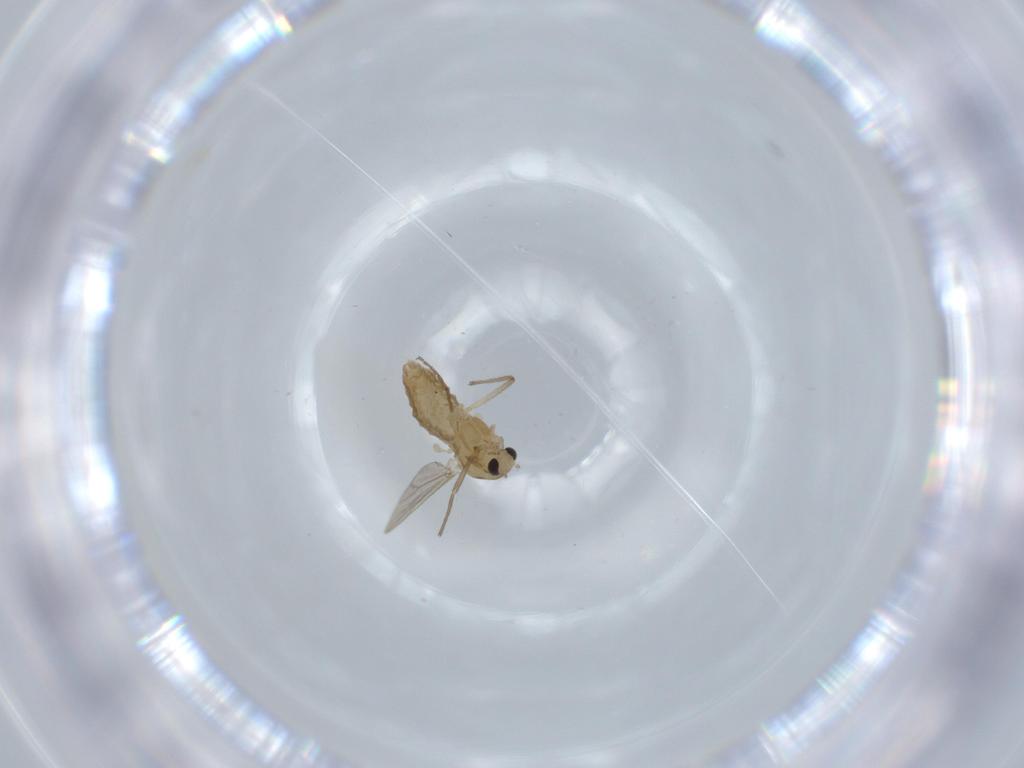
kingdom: Animalia
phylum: Arthropoda
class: Insecta
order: Diptera
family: Chironomidae
